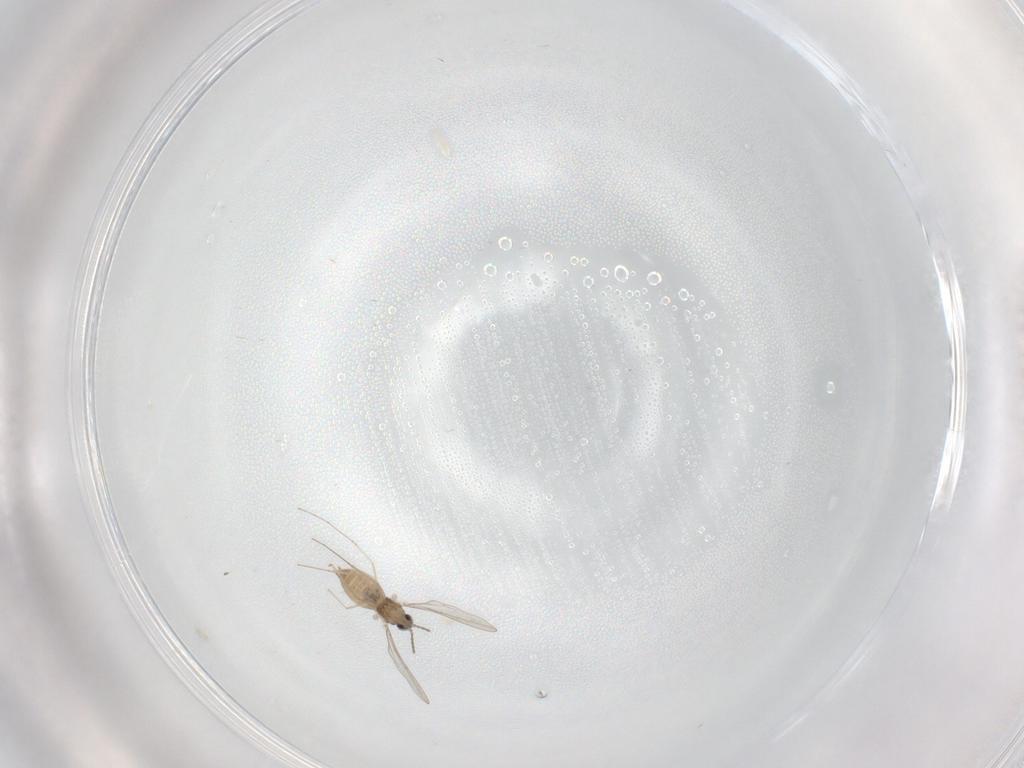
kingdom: Animalia
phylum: Arthropoda
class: Insecta
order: Diptera
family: Cecidomyiidae
